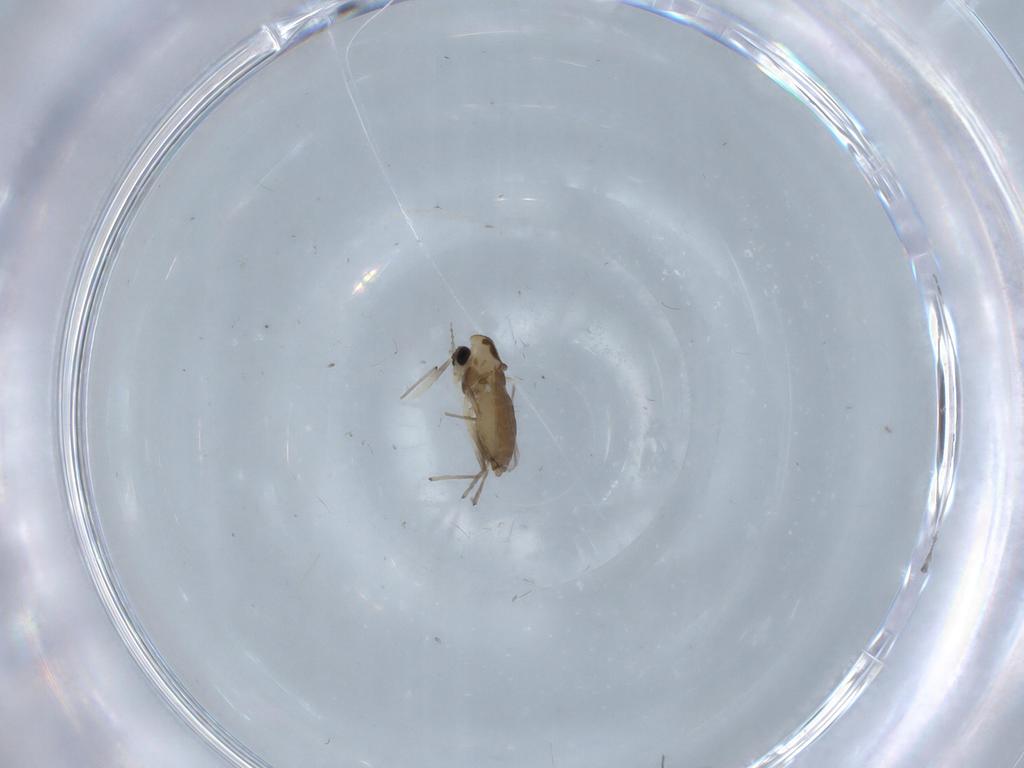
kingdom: Animalia
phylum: Arthropoda
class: Insecta
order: Diptera
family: Chironomidae
